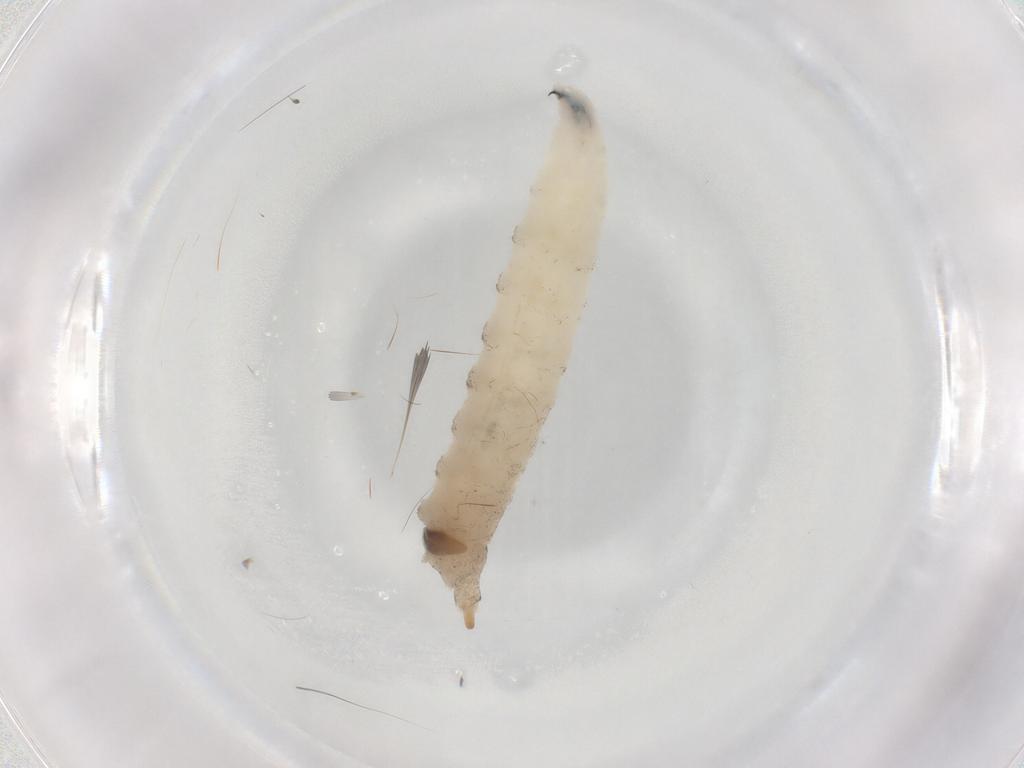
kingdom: Animalia
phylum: Arthropoda
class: Insecta
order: Diptera
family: Drosophilidae
